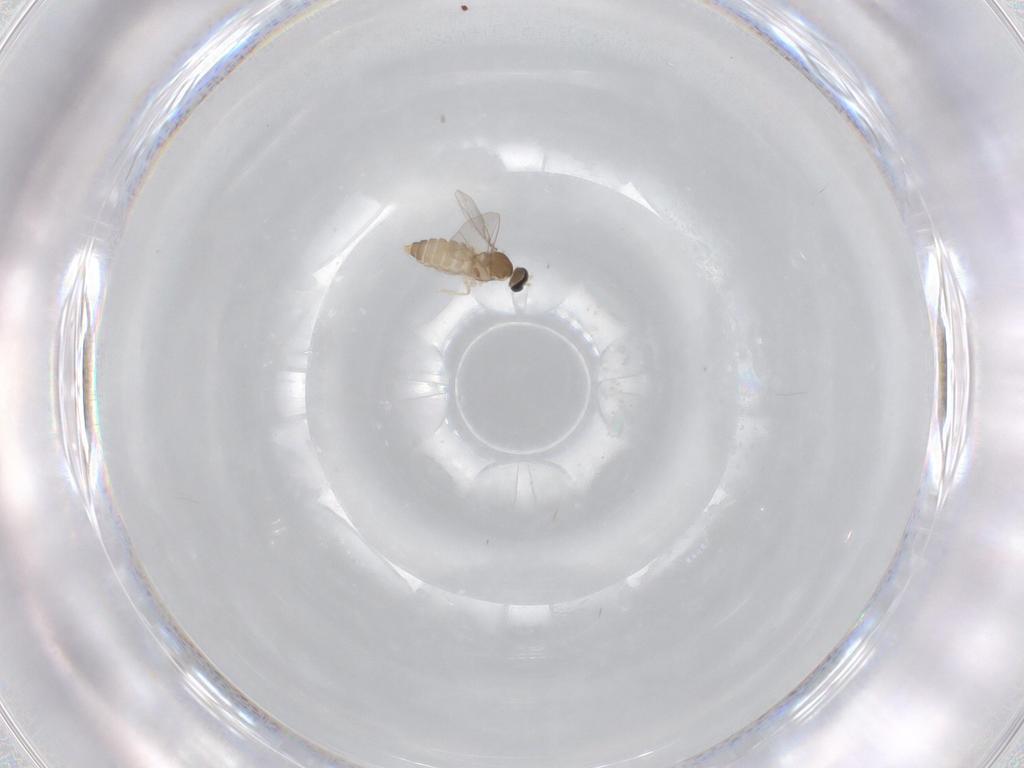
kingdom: Animalia
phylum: Arthropoda
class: Insecta
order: Diptera
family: Cecidomyiidae
